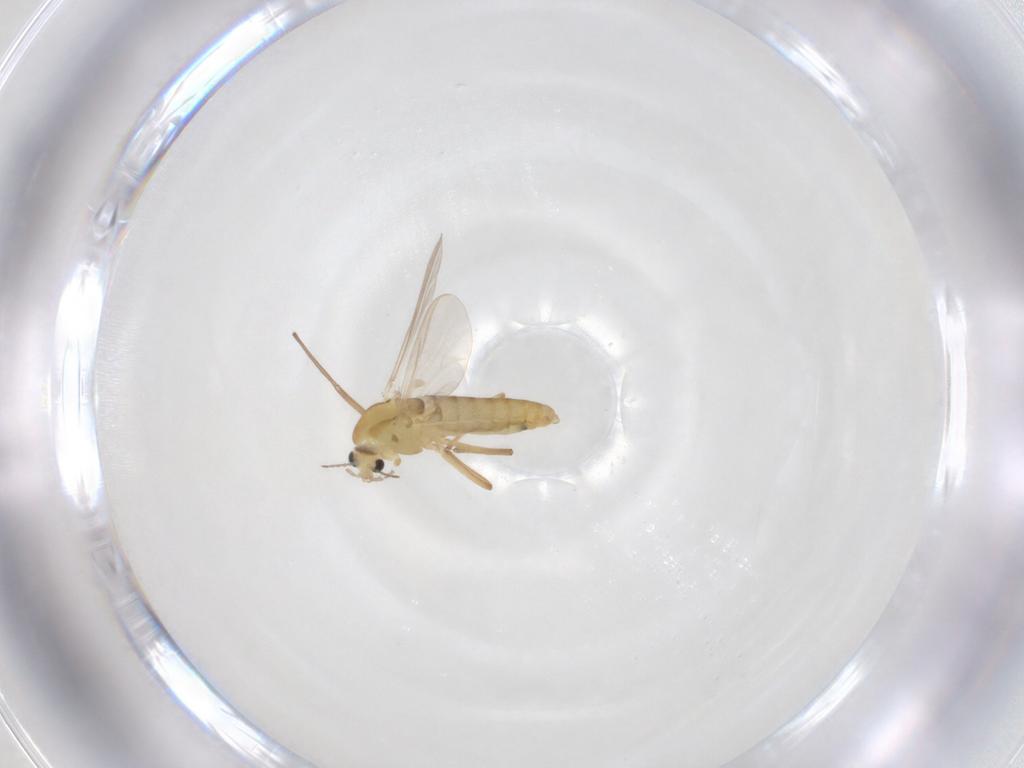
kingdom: Animalia
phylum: Arthropoda
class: Insecta
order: Diptera
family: Chironomidae
